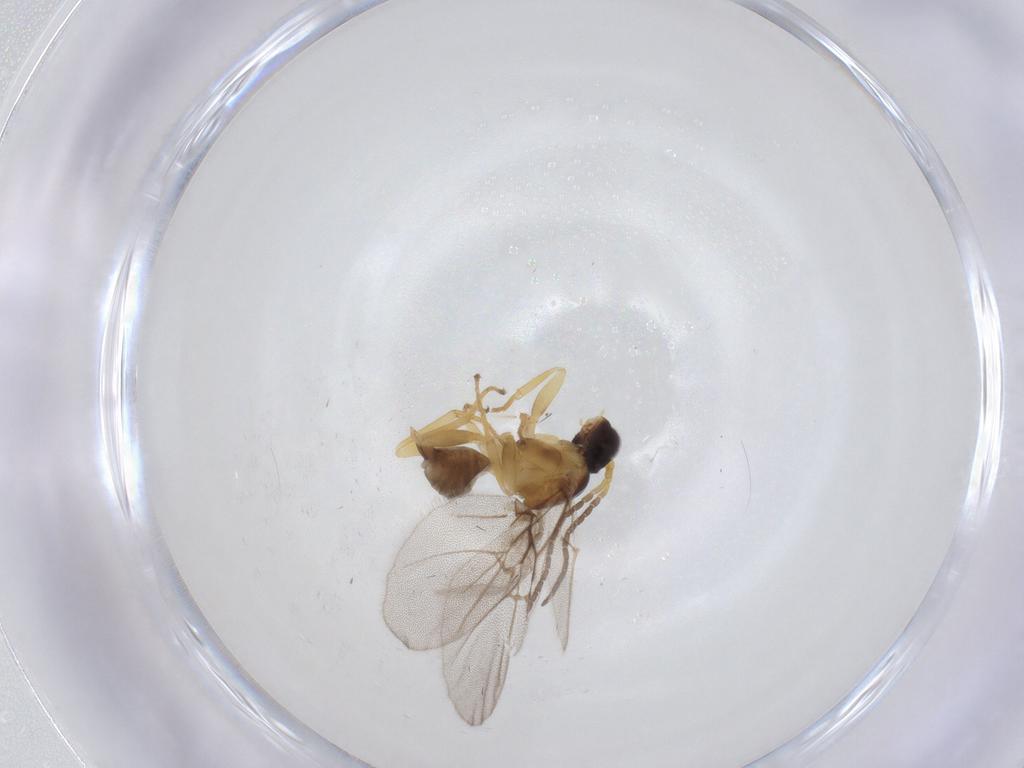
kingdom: Animalia
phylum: Arthropoda
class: Insecta
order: Hymenoptera
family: Cynipidae
